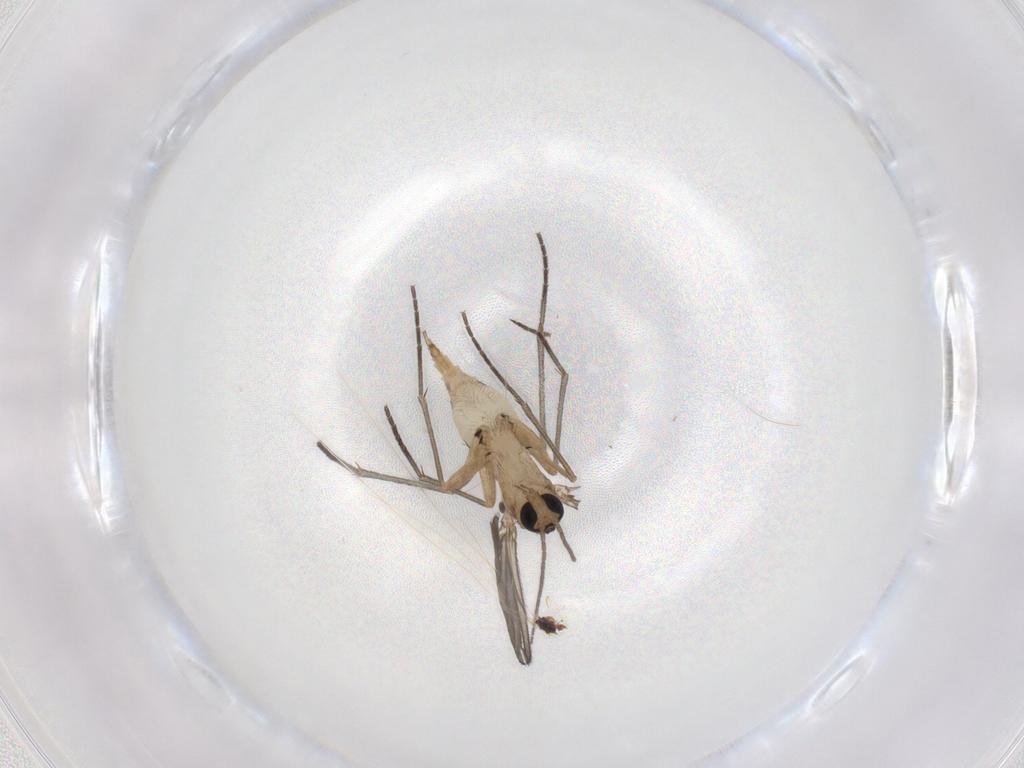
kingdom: Animalia
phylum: Arthropoda
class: Insecta
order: Diptera
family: Sciaridae
